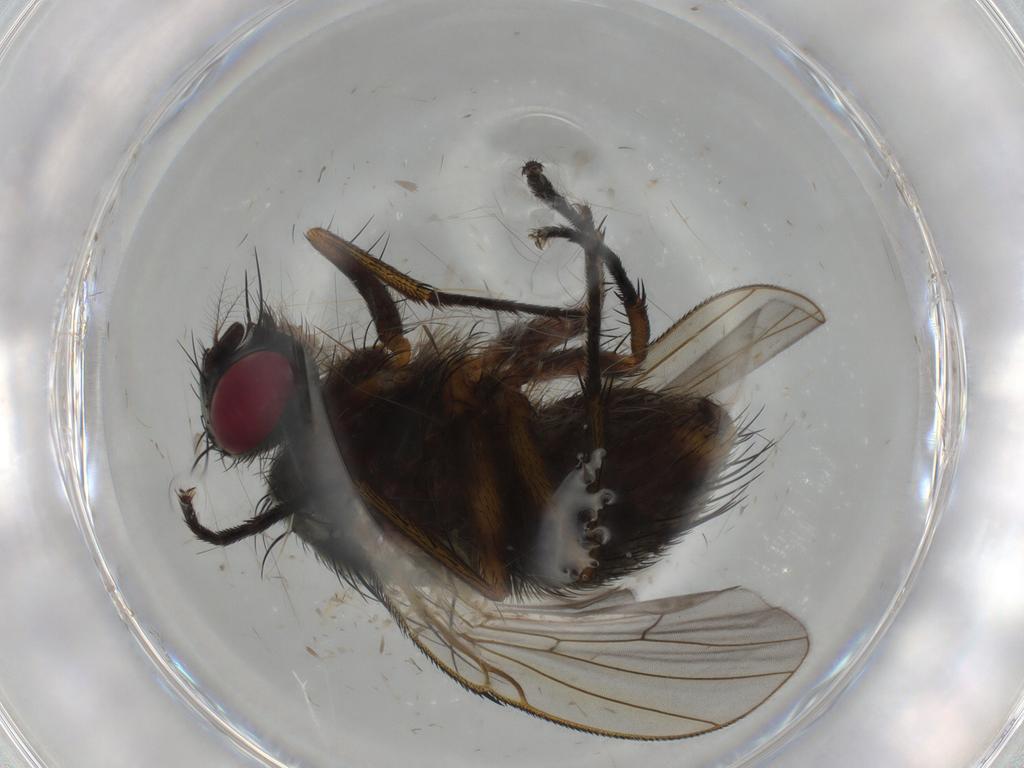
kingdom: Animalia
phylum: Arthropoda
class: Insecta
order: Diptera
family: Muscidae
